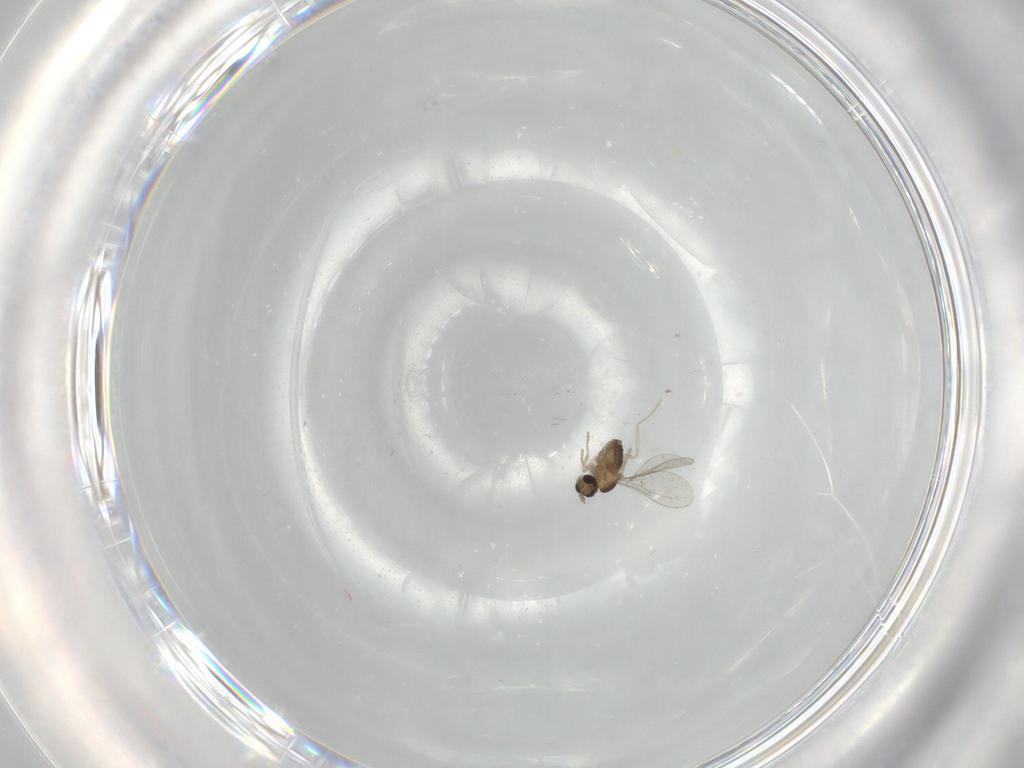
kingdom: Animalia
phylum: Arthropoda
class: Insecta
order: Diptera
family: Cecidomyiidae
